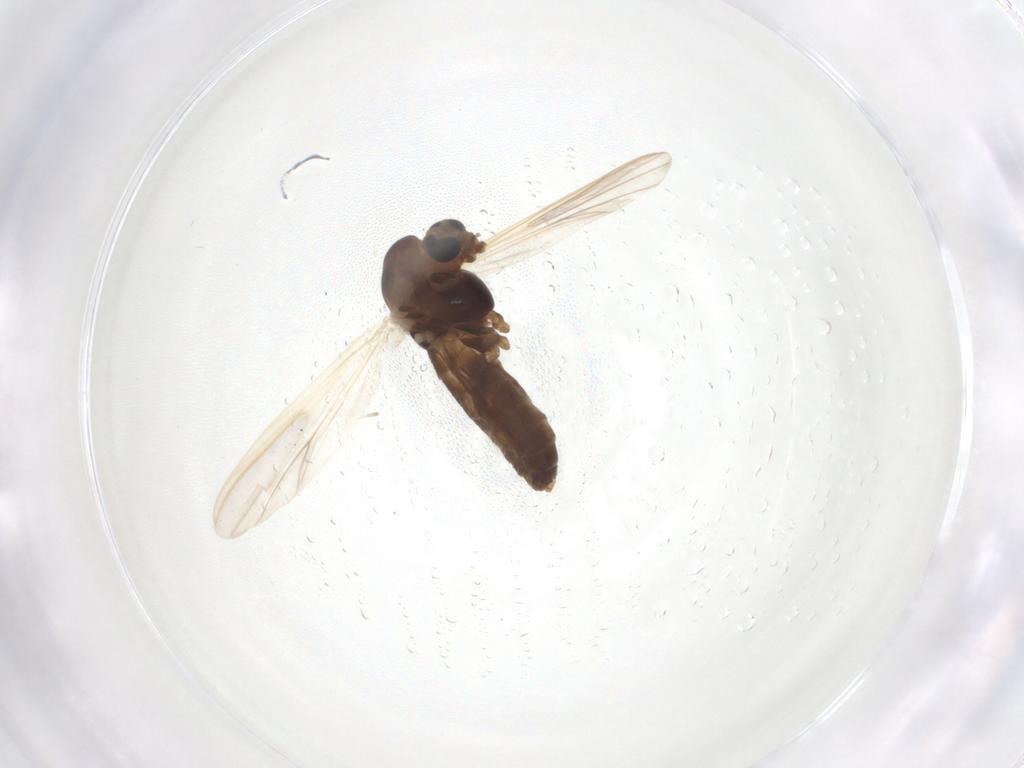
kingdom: Animalia
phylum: Arthropoda
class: Insecta
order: Diptera
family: Chironomidae
